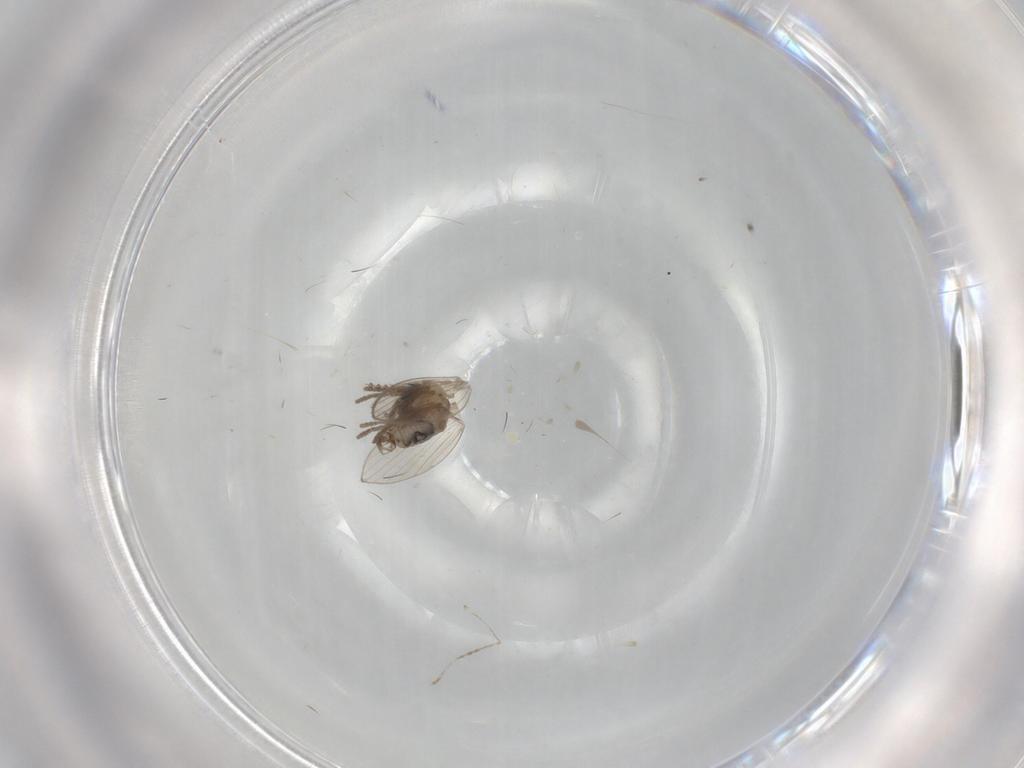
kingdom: Animalia
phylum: Arthropoda
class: Insecta
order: Diptera
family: Psychodidae
